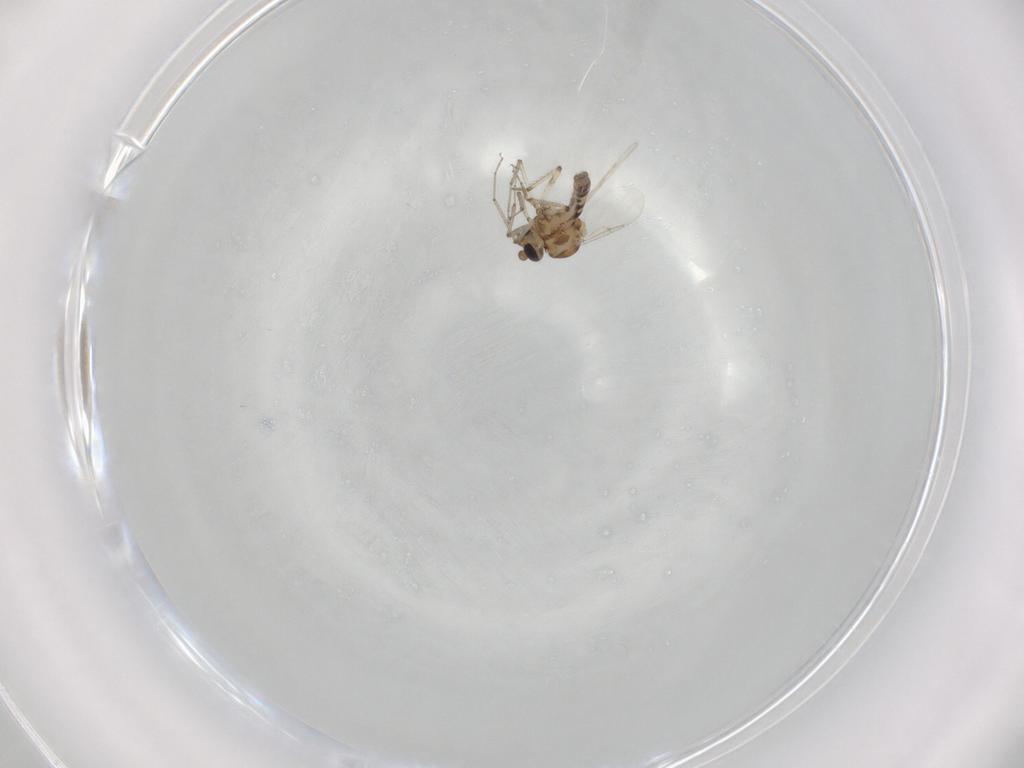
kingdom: Animalia
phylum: Arthropoda
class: Insecta
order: Diptera
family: Ceratopogonidae
